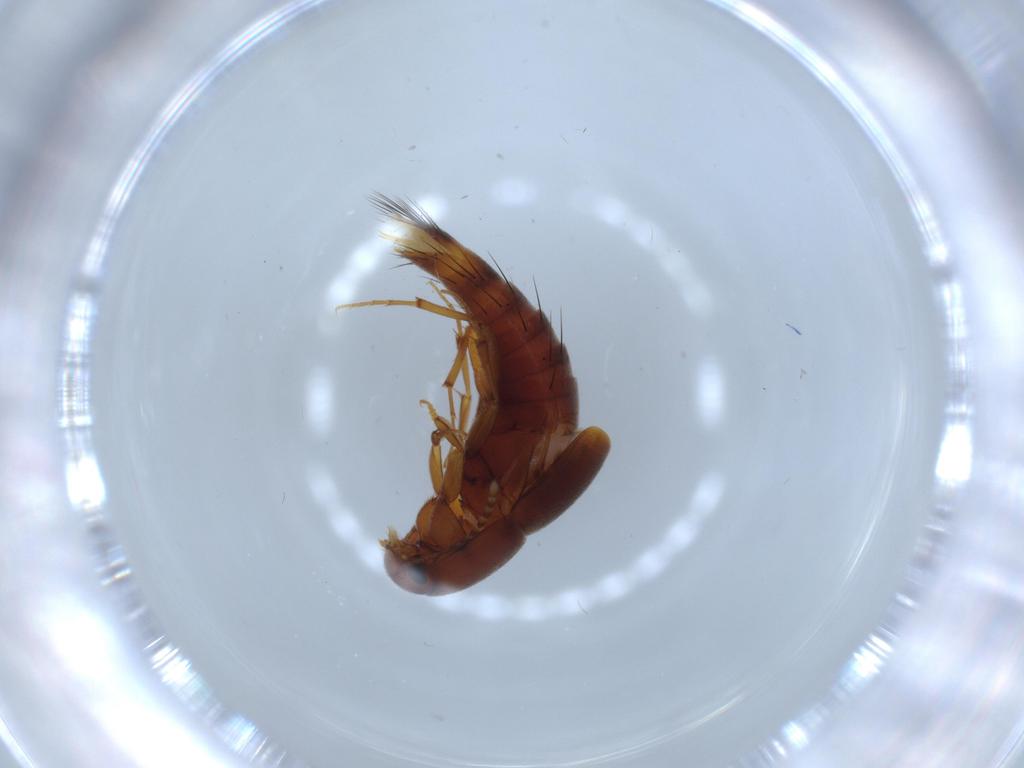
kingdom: Animalia
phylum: Arthropoda
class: Insecta
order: Coleoptera
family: Staphylinidae
